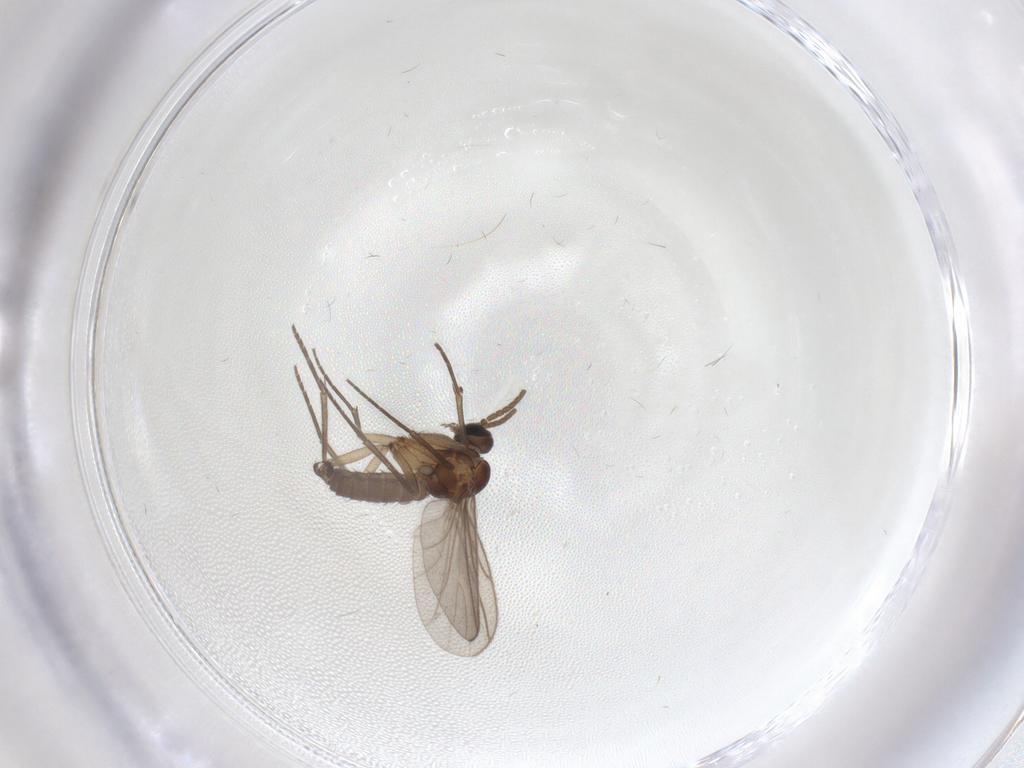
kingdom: Animalia
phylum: Arthropoda
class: Insecta
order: Diptera
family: Sciaridae
